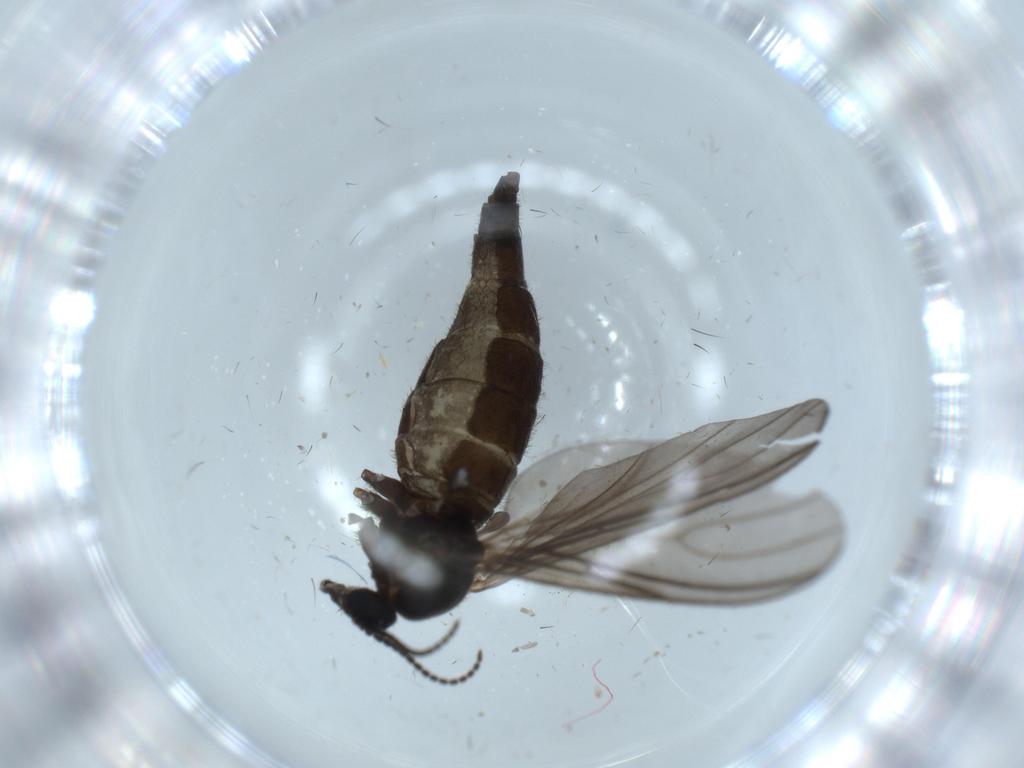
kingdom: Animalia
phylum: Arthropoda
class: Insecta
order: Diptera
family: Sciaridae
